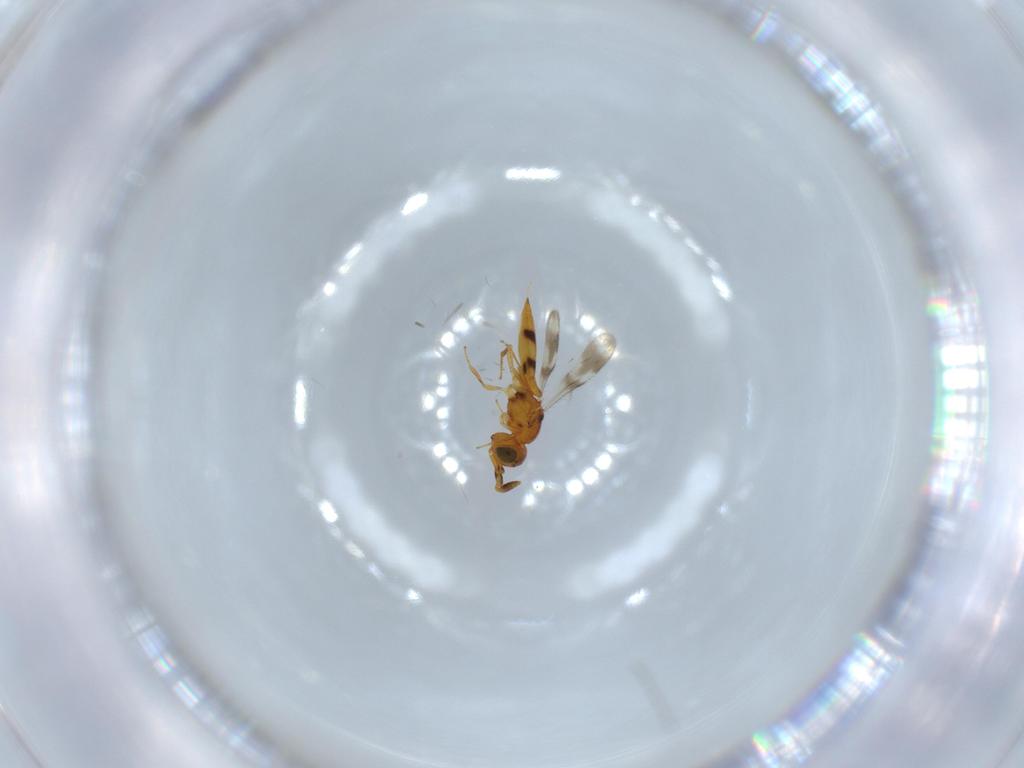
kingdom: Animalia
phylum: Arthropoda
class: Insecta
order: Hymenoptera
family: Scelionidae
